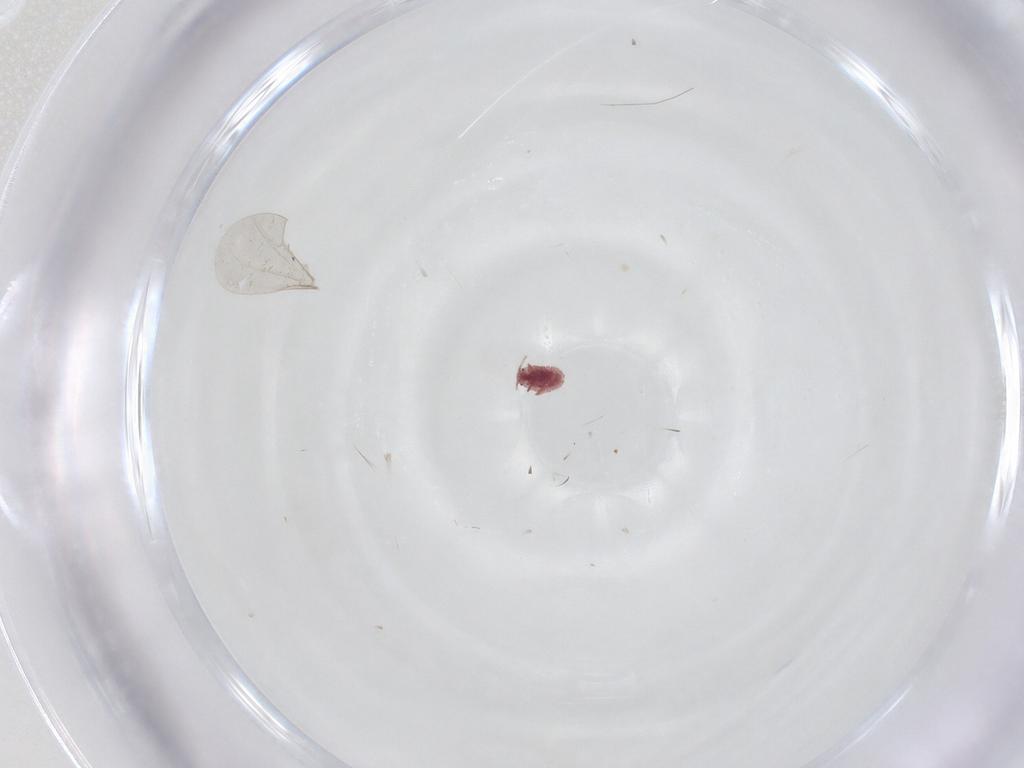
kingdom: Animalia
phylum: Arthropoda
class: Insecta
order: Diptera
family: Cecidomyiidae
